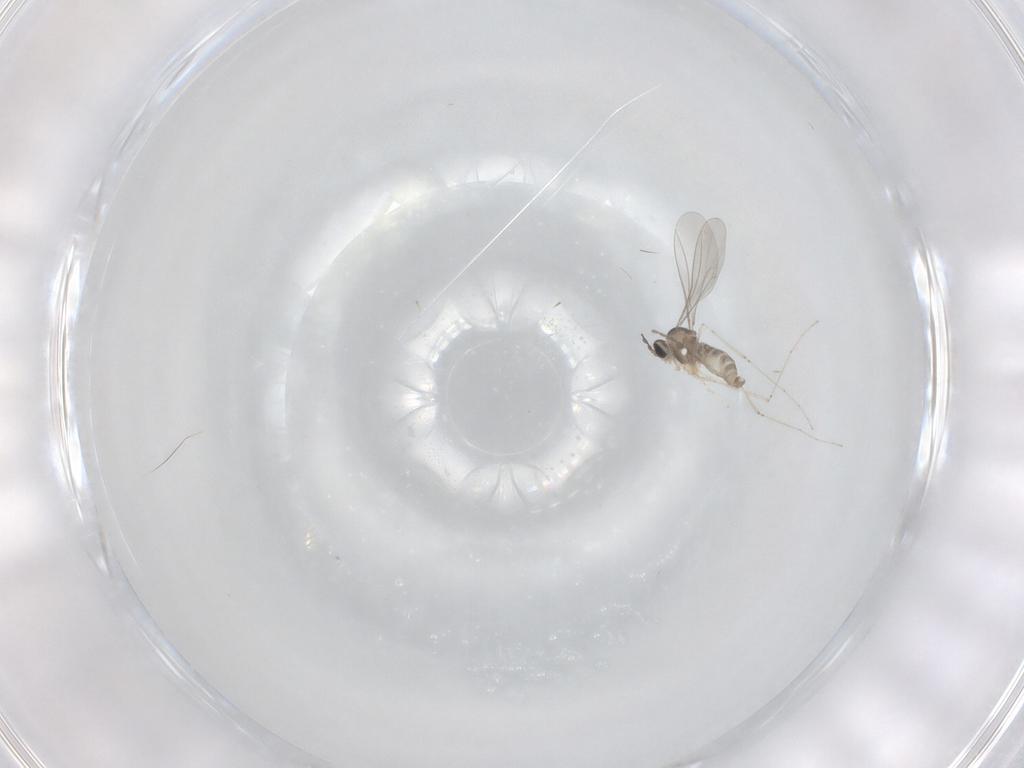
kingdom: Animalia
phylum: Arthropoda
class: Insecta
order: Diptera
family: Cecidomyiidae
